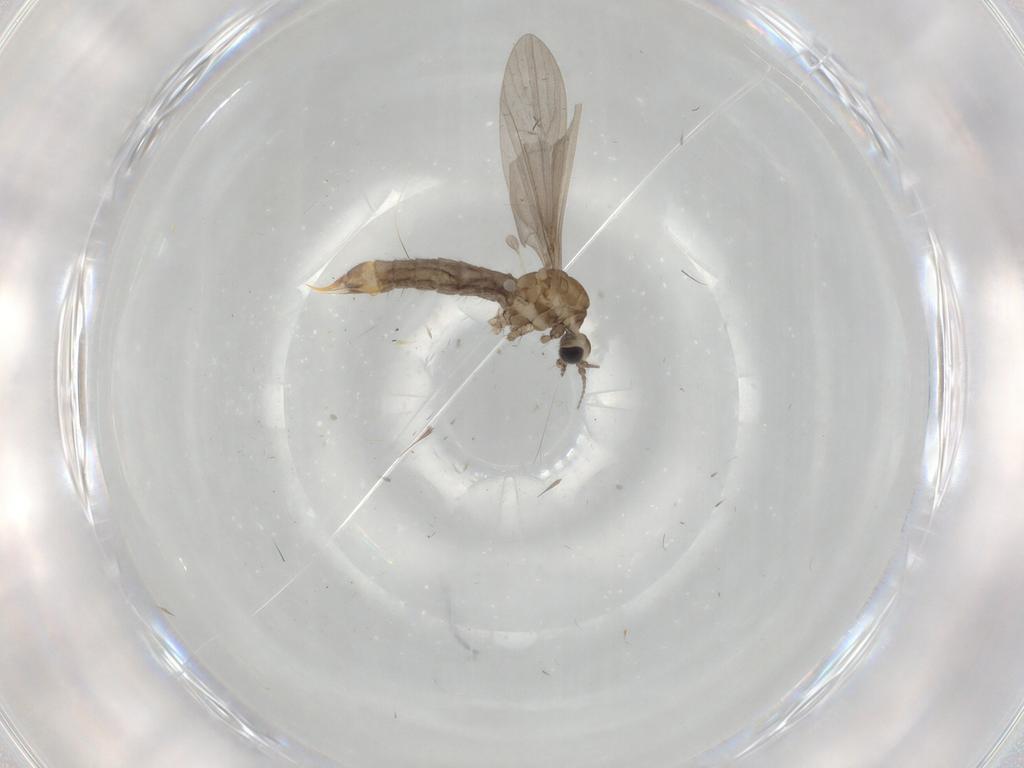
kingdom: Animalia
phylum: Arthropoda
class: Insecta
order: Diptera
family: Limoniidae
